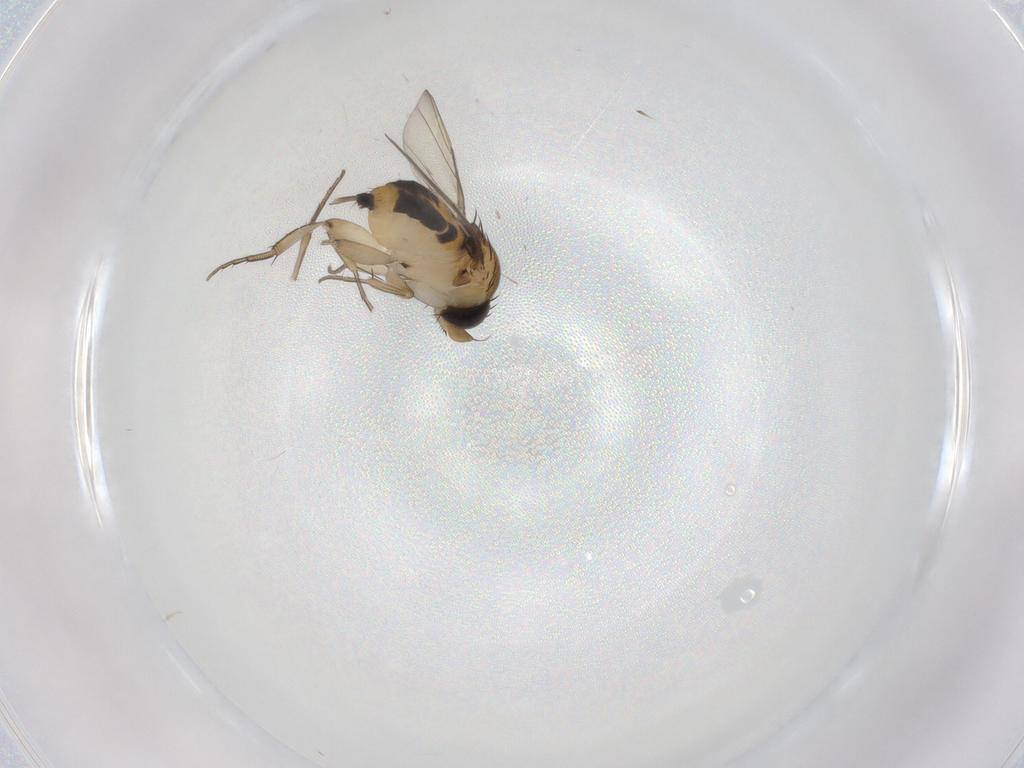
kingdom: Animalia
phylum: Arthropoda
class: Insecta
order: Diptera
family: Phoridae
